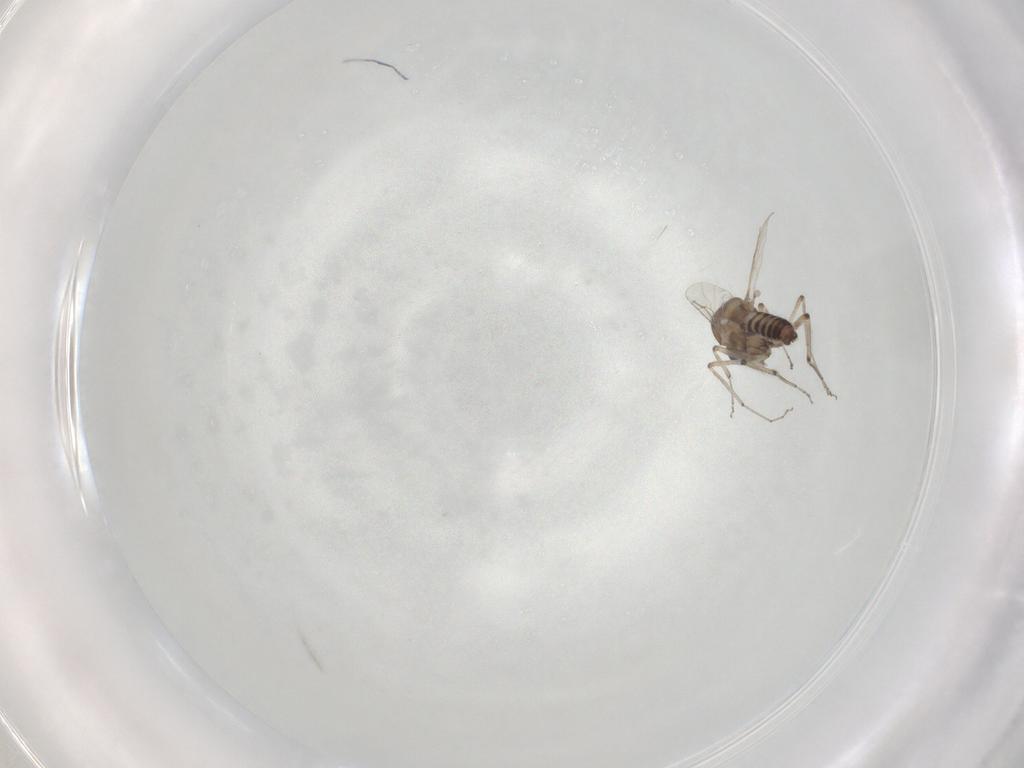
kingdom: Animalia
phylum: Arthropoda
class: Insecta
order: Diptera
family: Cecidomyiidae
